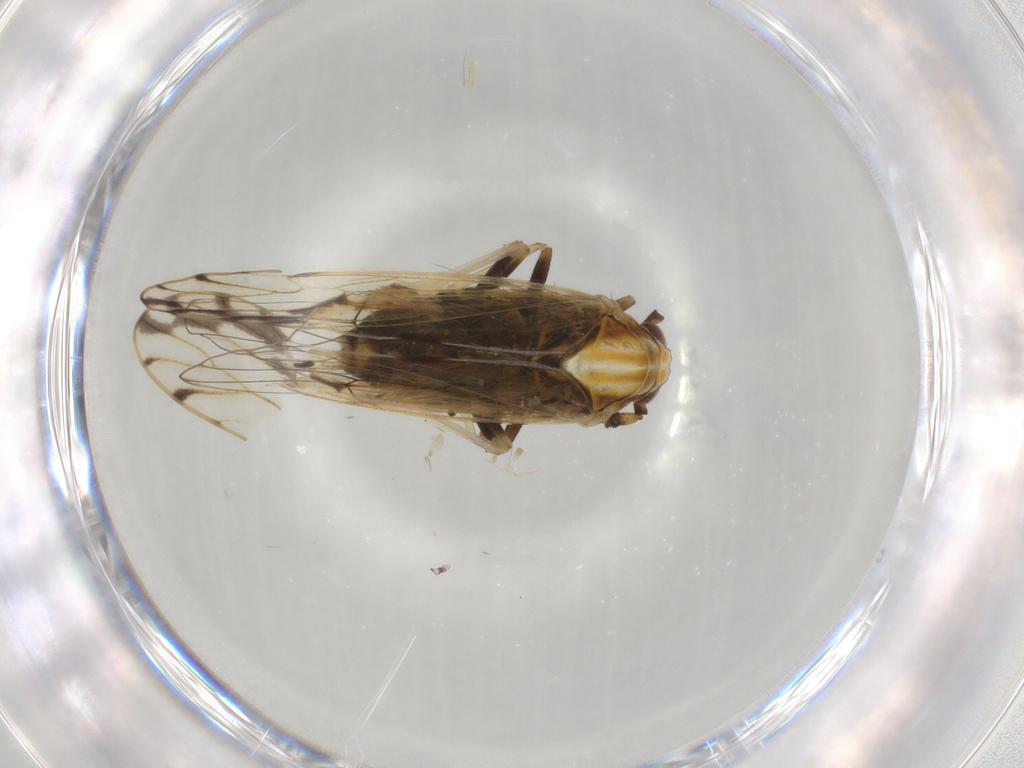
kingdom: Animalia
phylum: Arthropoda
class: Insecta
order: Hemiptera
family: Delphacidae
